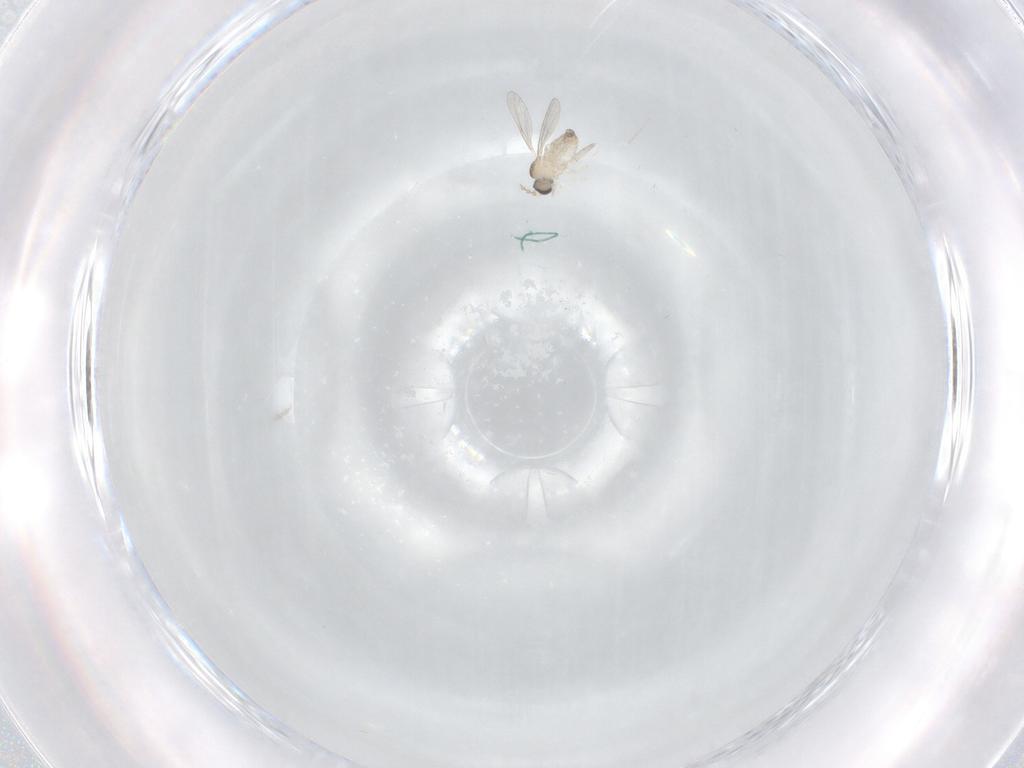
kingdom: Animalia
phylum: Arthropoda
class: Insecta
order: Diptera
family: Cecidomyiidae
